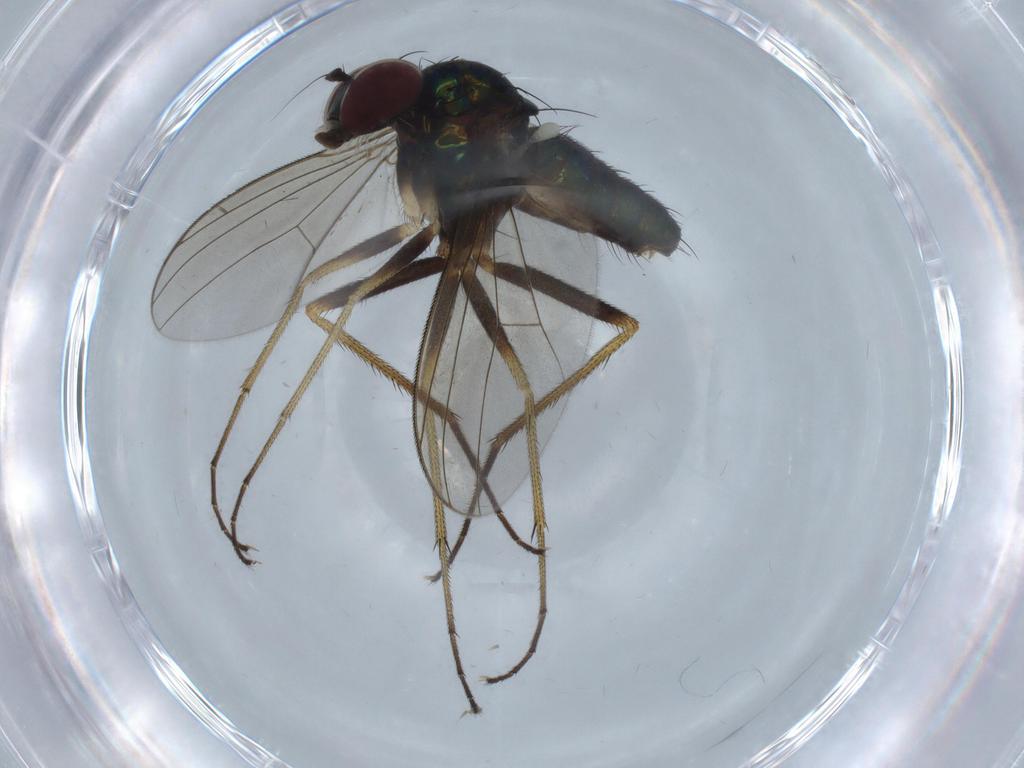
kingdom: Animalia
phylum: Arthropoda
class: Insecta
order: Diptera
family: Dolichopodidae
